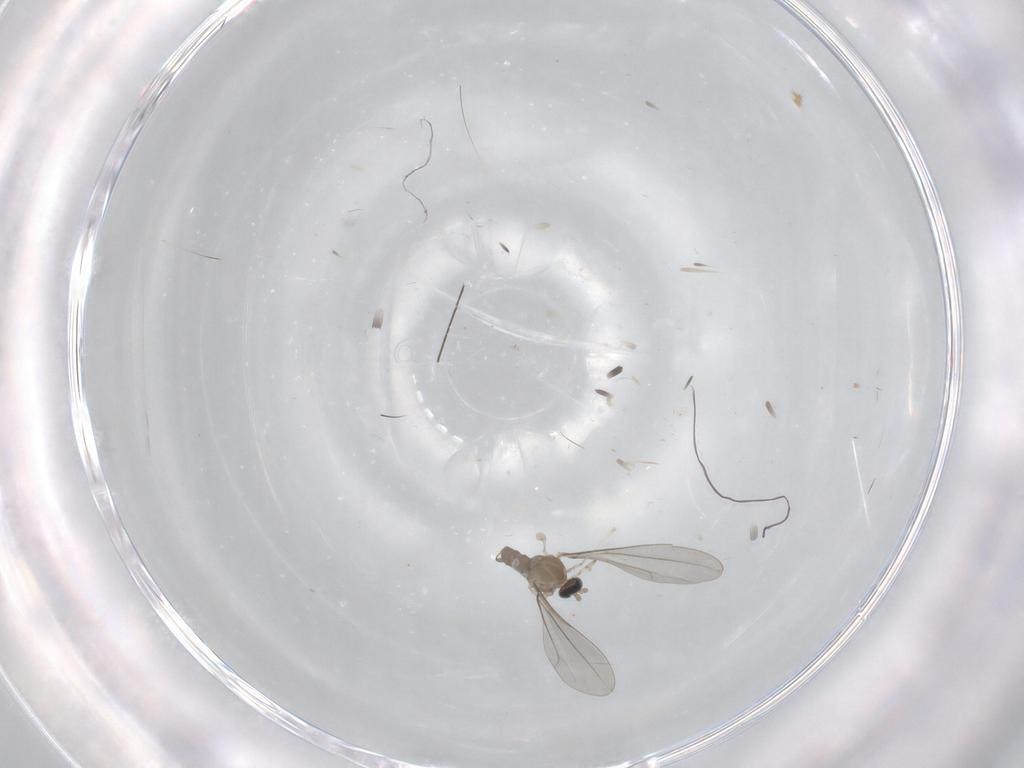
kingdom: Animalia
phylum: Arthropoda
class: Insecta
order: Diptera
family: Cecidomyiidae
